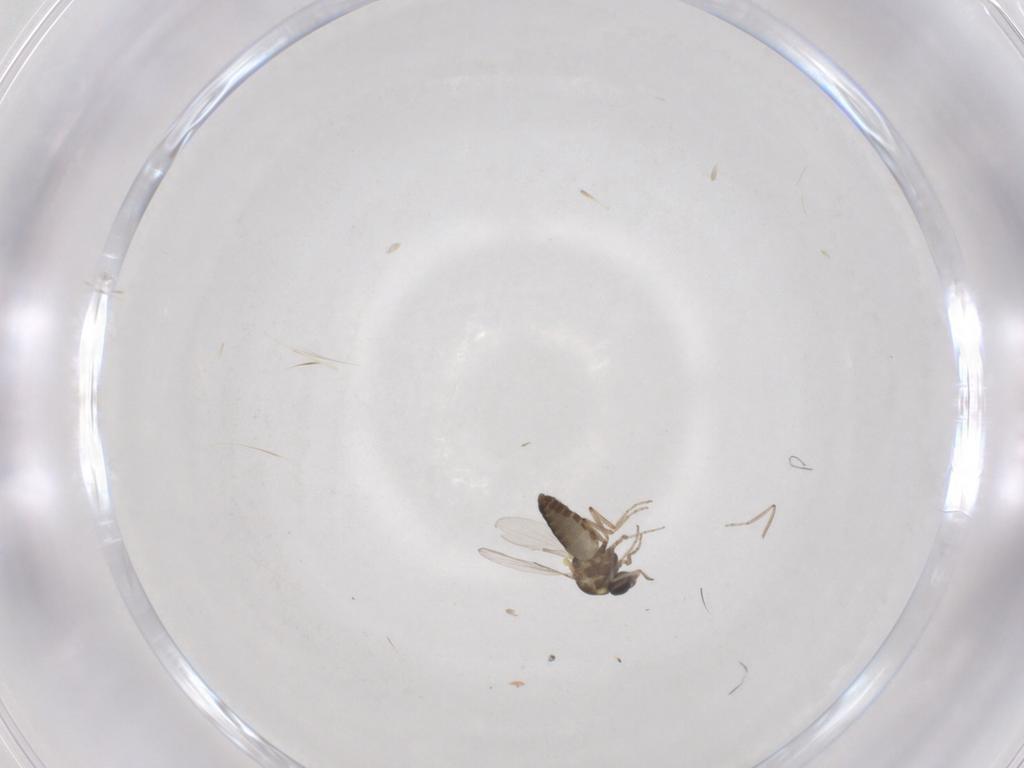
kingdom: Animalia
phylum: Arthropoda
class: Insecta
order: Diptera
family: Ceratopogonidae
